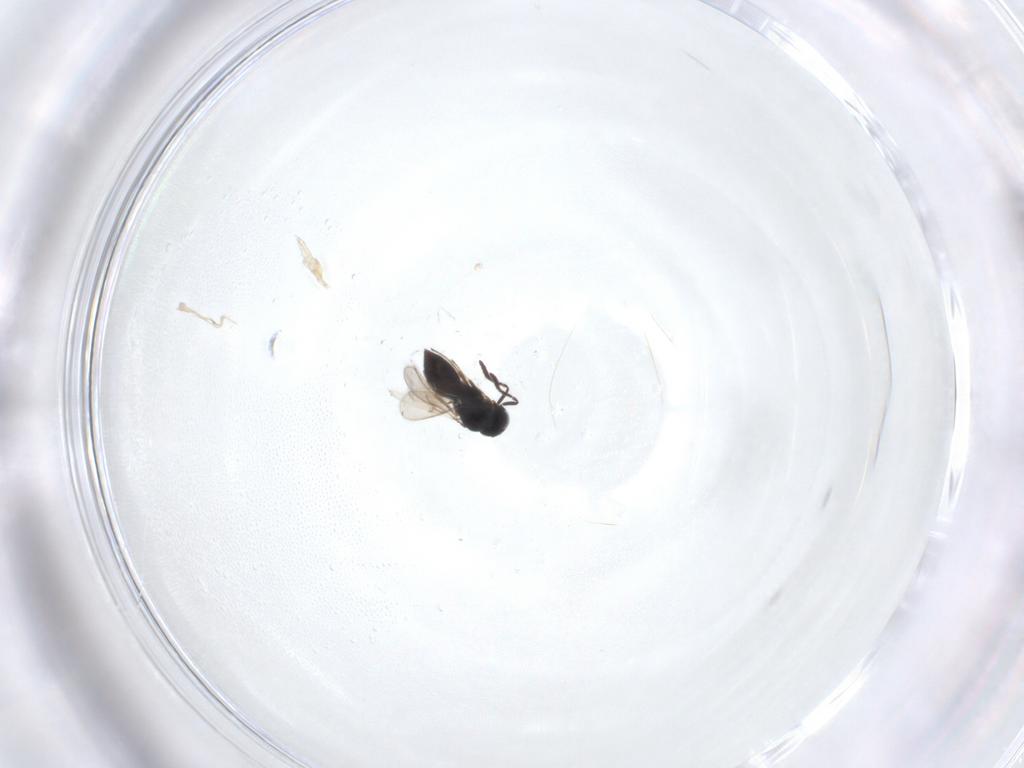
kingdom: Animalia
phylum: Arthropoda
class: Insecta
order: Hymenoptera
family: Scelionidae
